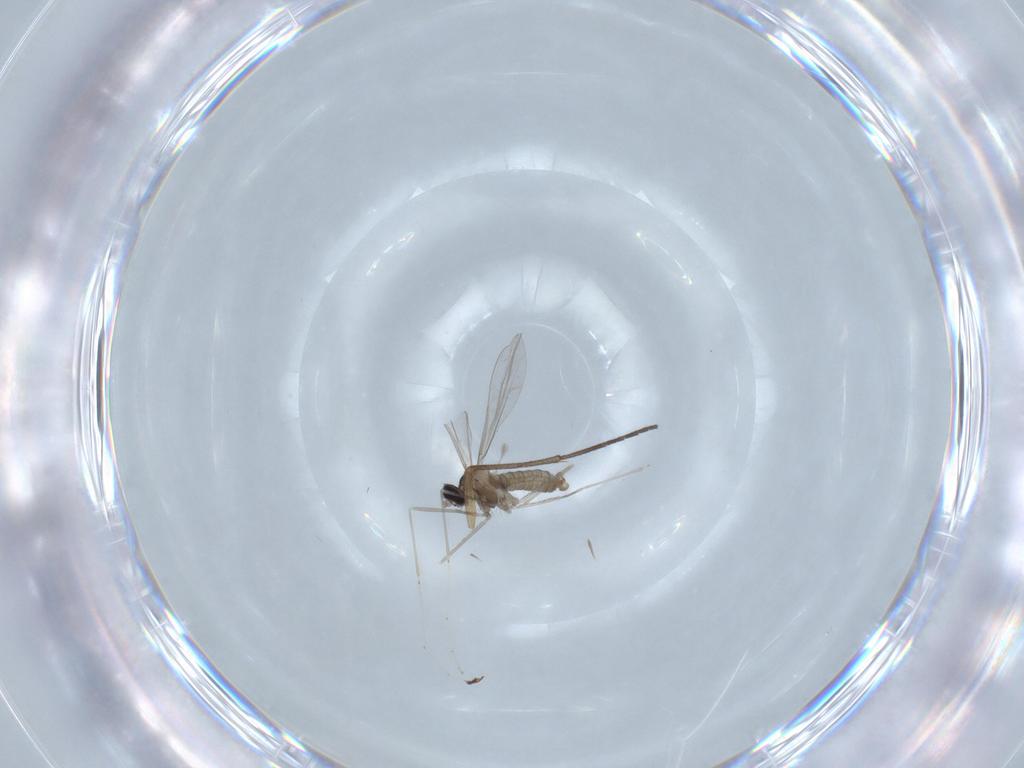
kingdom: Animalia
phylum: Arthropoda
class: Insecta
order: Diptera
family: Cecidomyiidae
